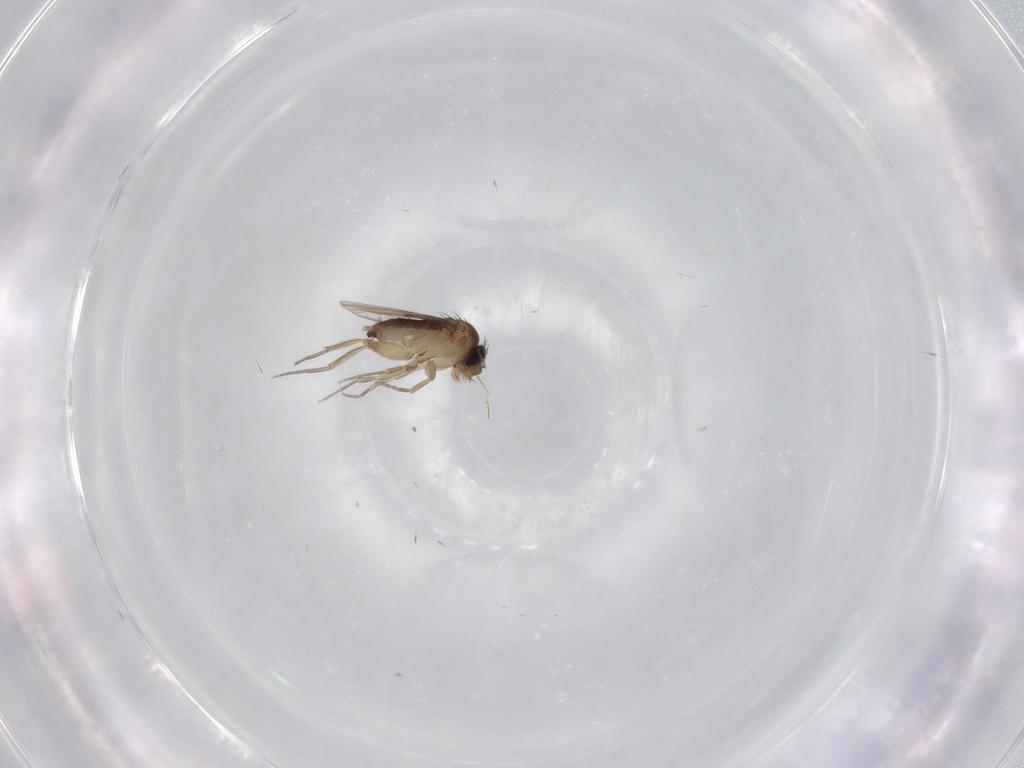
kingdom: Animalia
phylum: Arthropoda
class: Insecta
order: Diptera
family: Phoridae
